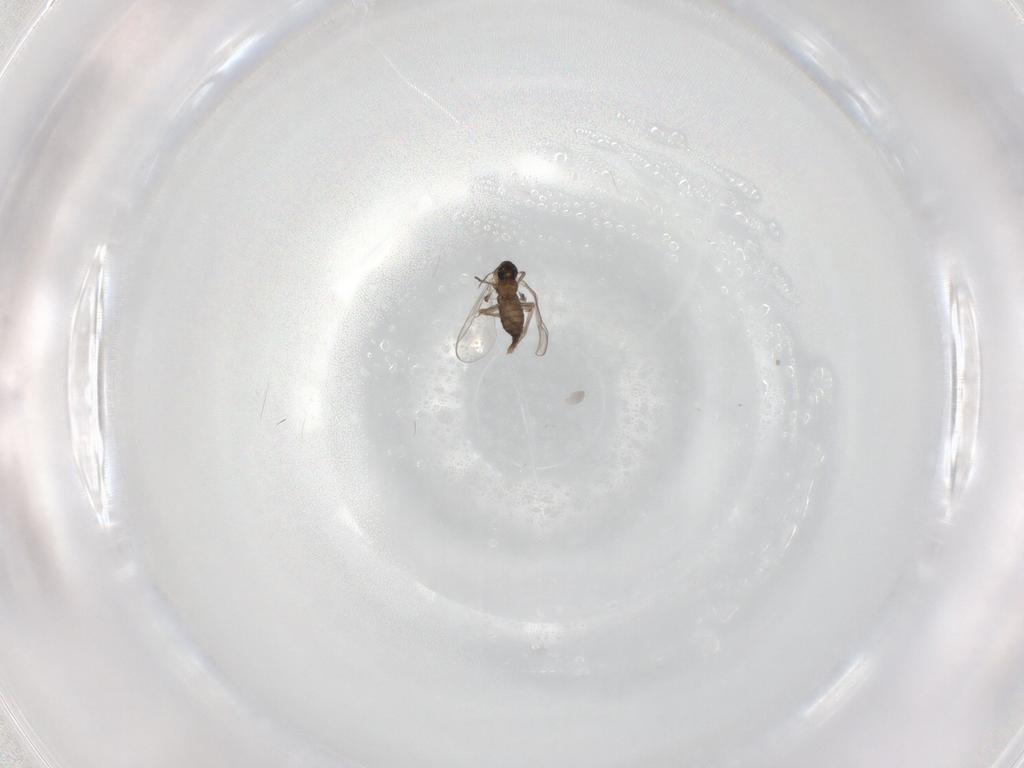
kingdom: Animalia
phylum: Arthropoda
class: Insecta
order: Diptera
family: Chironomidae
